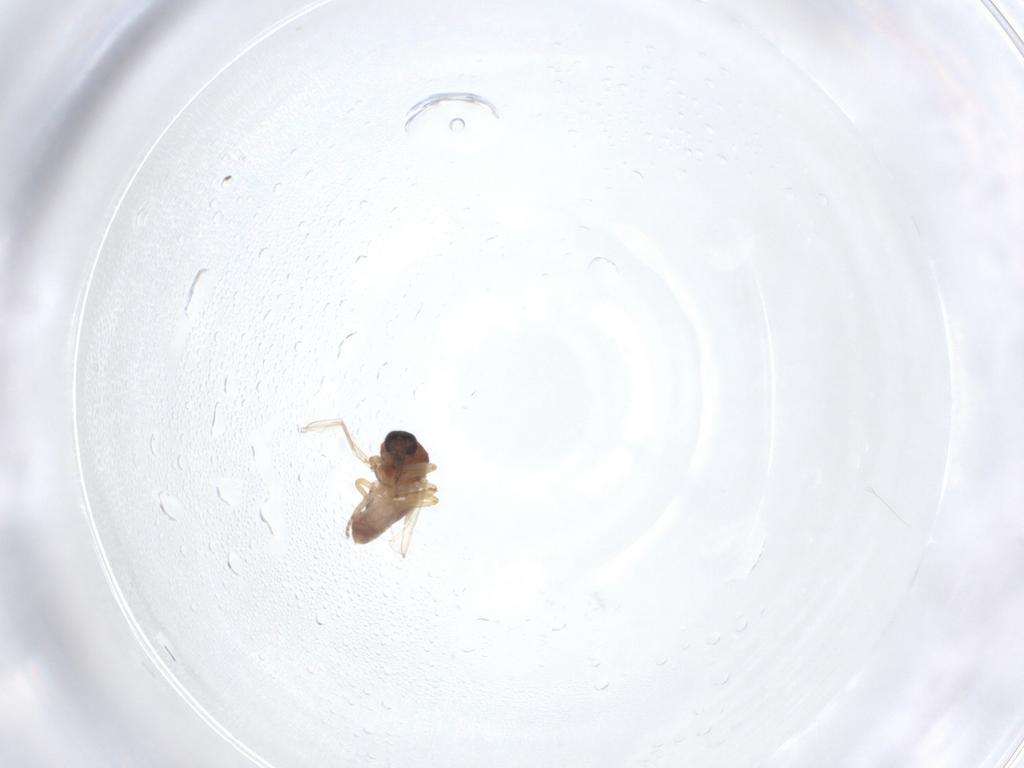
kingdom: Animalia
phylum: Arthropoda
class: Insecta
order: Diptera
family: Ceratopogonidae
